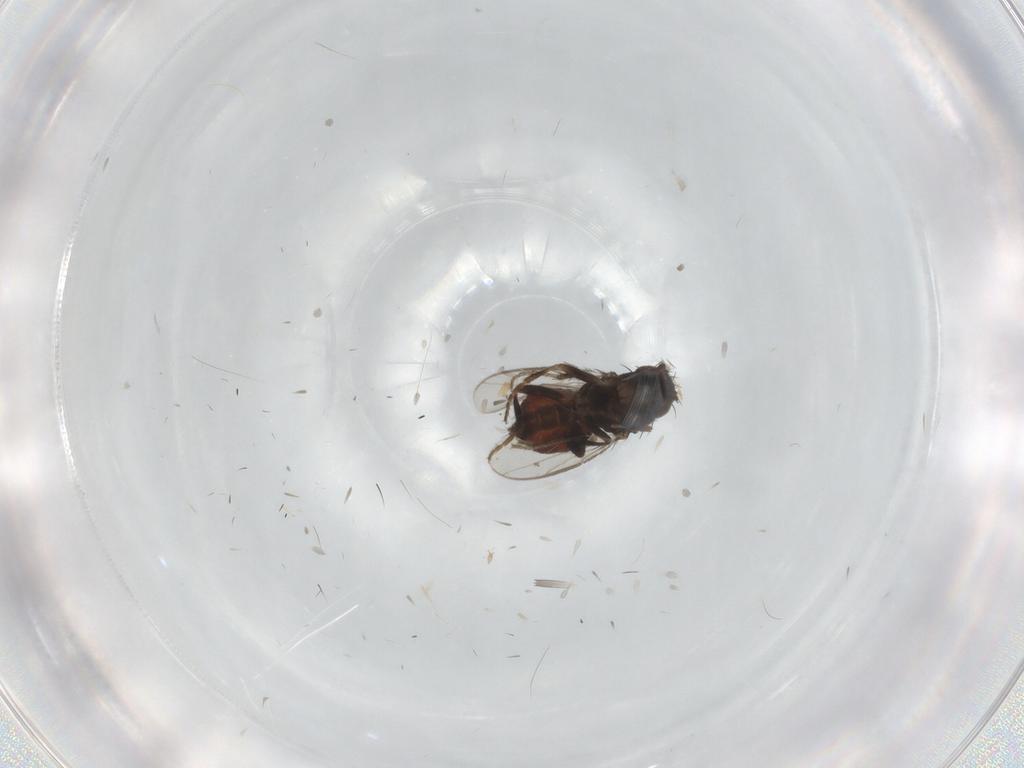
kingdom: Animalia
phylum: Arthropoda
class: Insecta
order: Diptera
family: Sphaeroceridae
